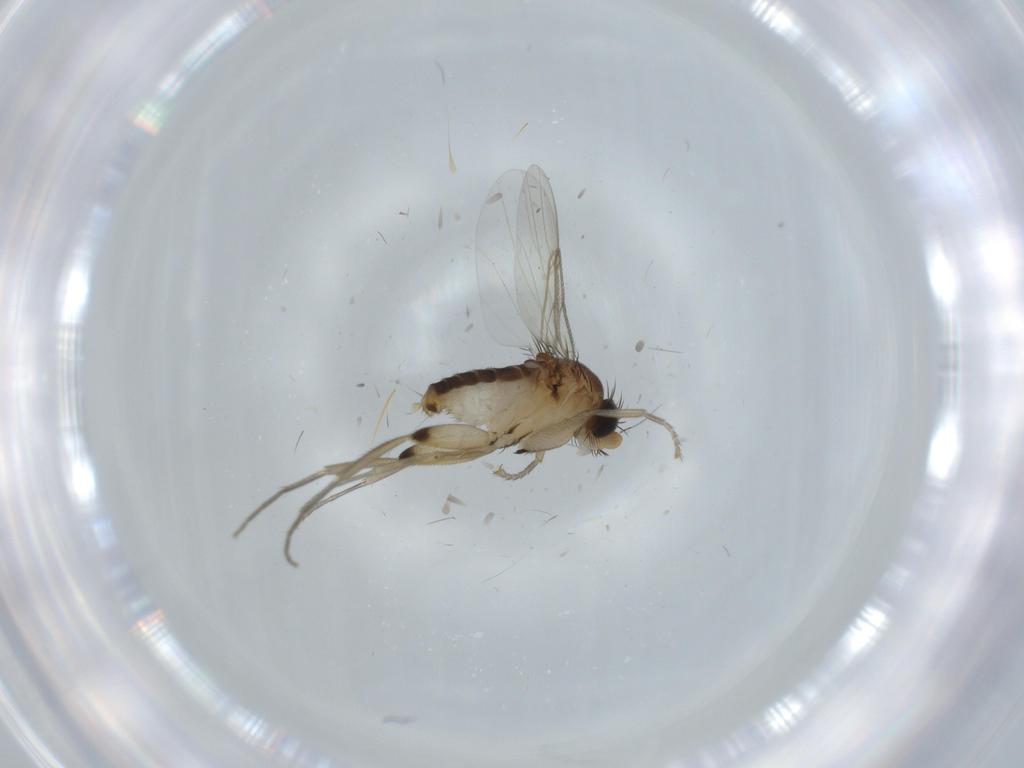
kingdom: Animalia
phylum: Arthropoda
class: Insecta
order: Diptera
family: Phoridae
